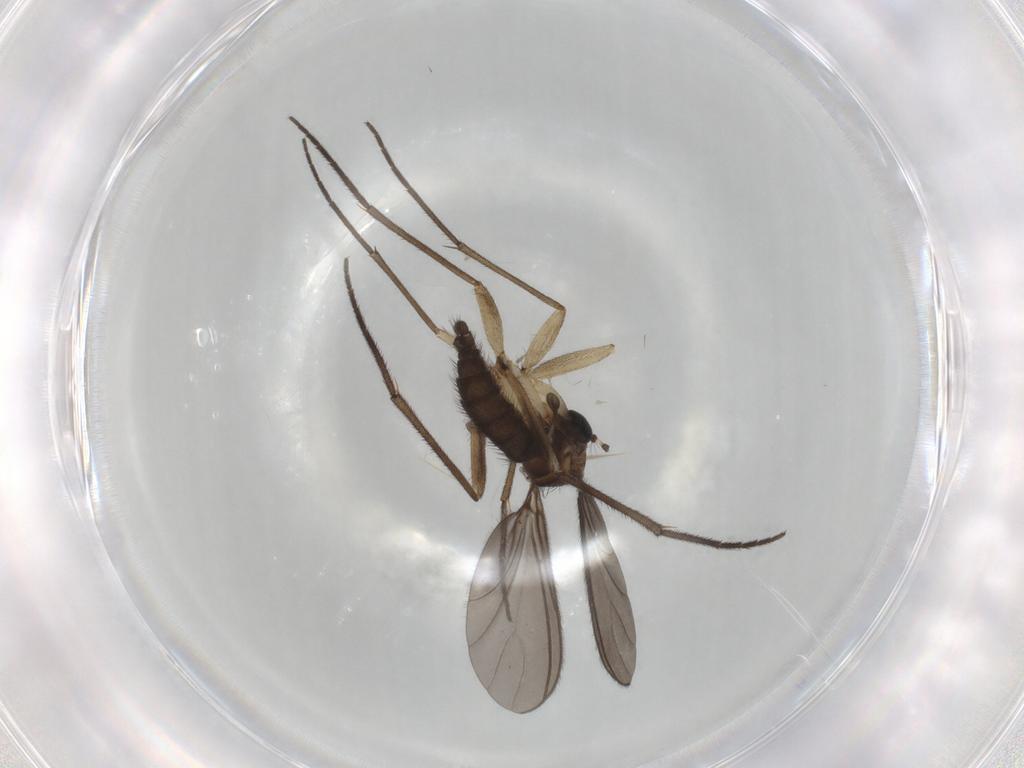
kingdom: Animalia
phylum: Arthropoda
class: Insecta
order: Diptera
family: Sciaridae
